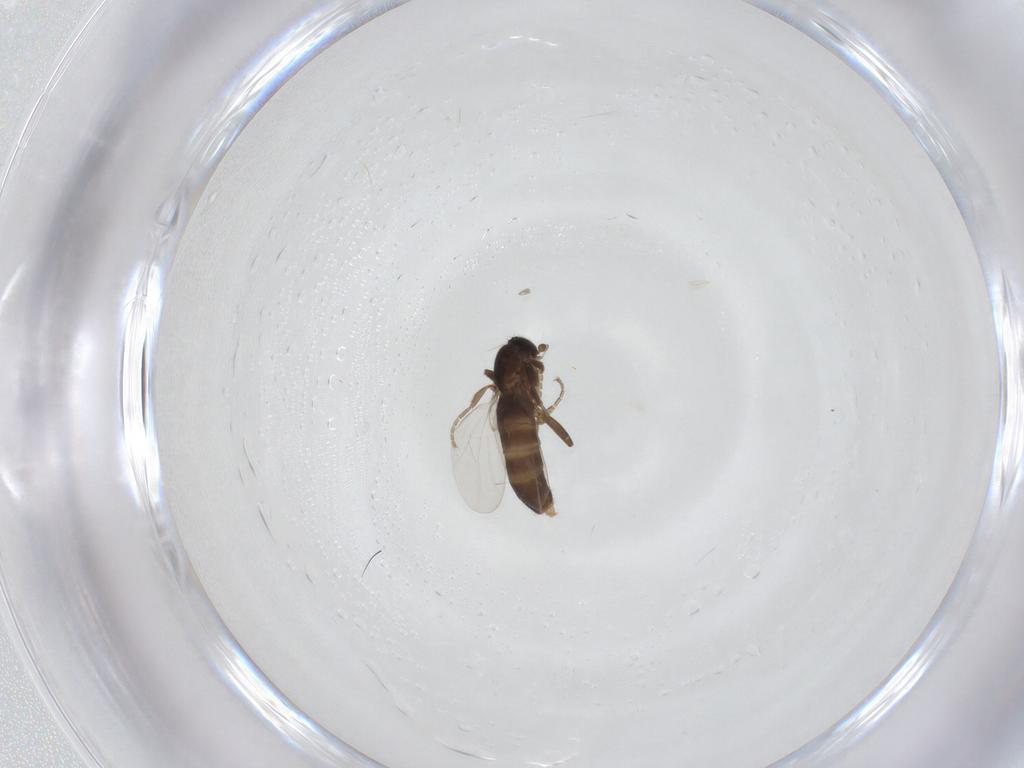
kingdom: Animalia
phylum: Arthropoda
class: Insecta
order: Diptera
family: Phoridae
